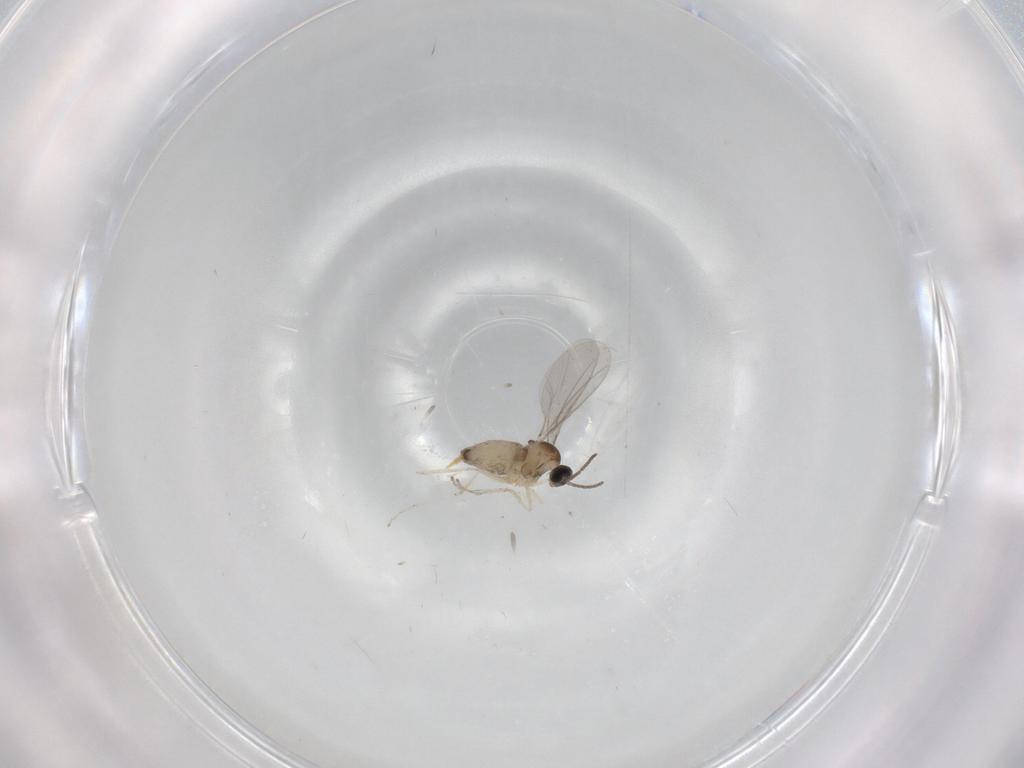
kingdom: Animalia
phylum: Arthropoda
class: Insecta
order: Diptera
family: Cecidomyiidae
